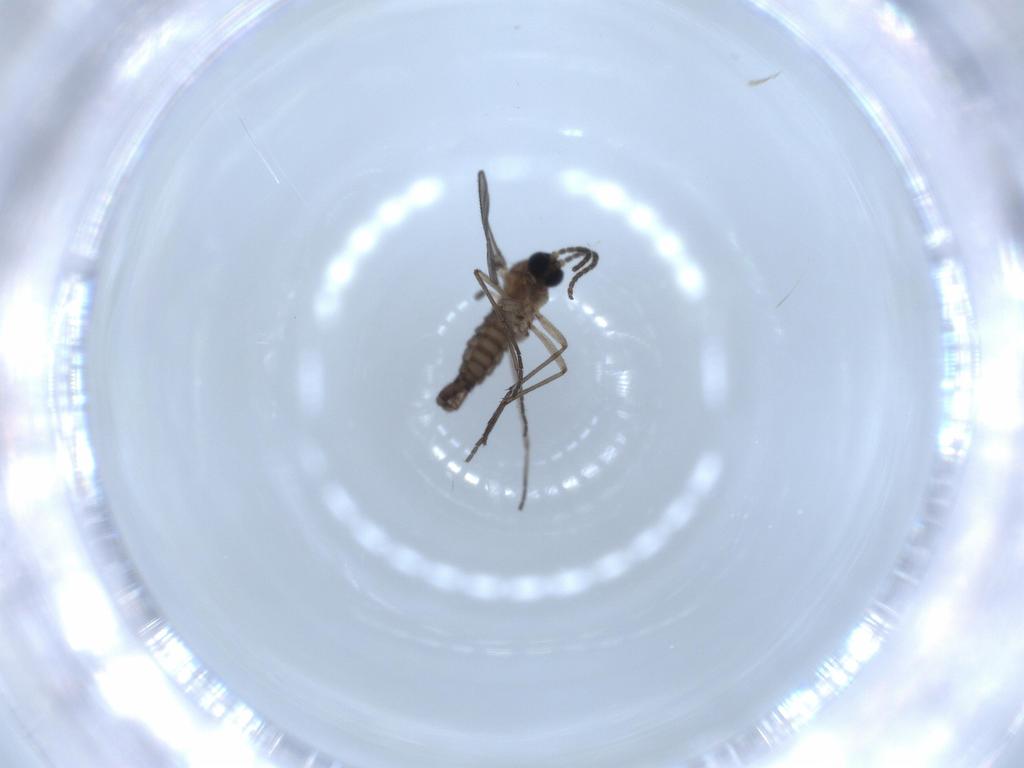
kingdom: Animalia
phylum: Arthropoda
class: Insecta
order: Diptera
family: Sciaridae
